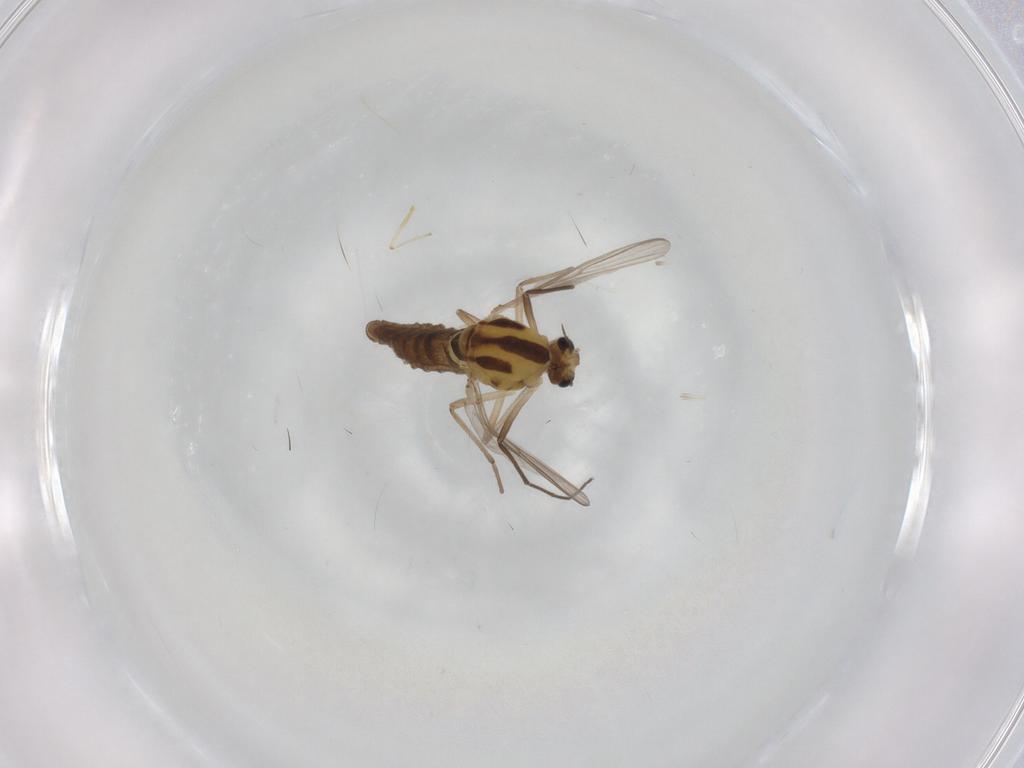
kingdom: Animalia
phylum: Arthropoda
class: Insecta
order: Diptera
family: Chironomidae
